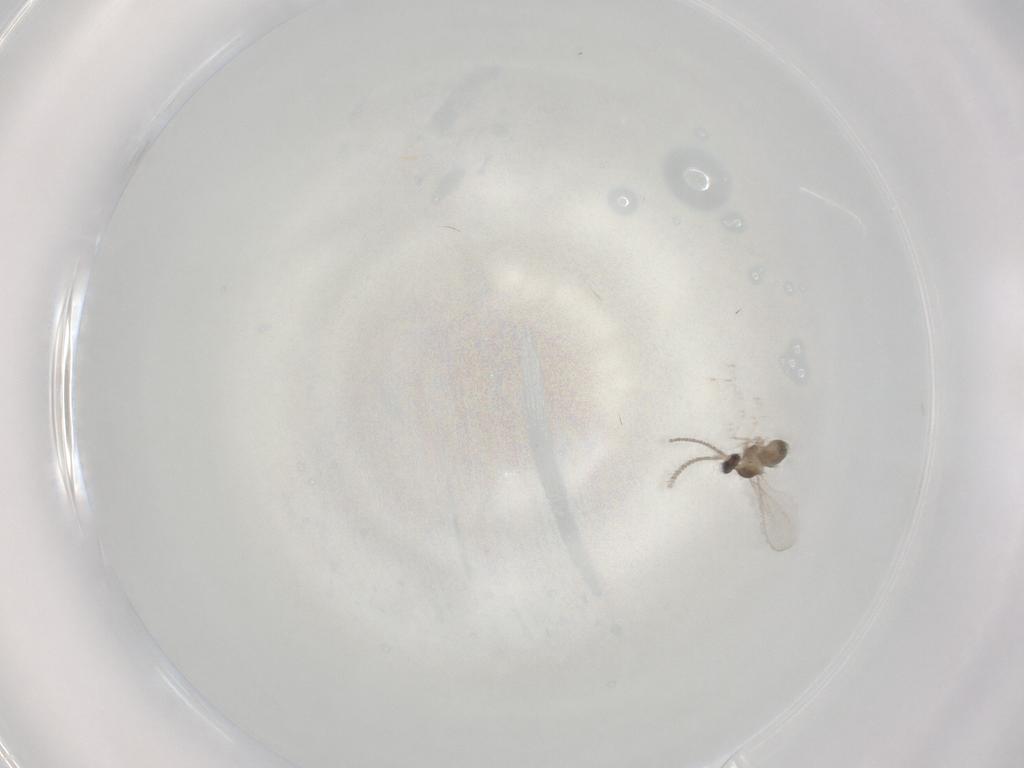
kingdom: Animalia
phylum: Arthropoda
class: Insecta
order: Diptera
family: Cecidomyiidae
